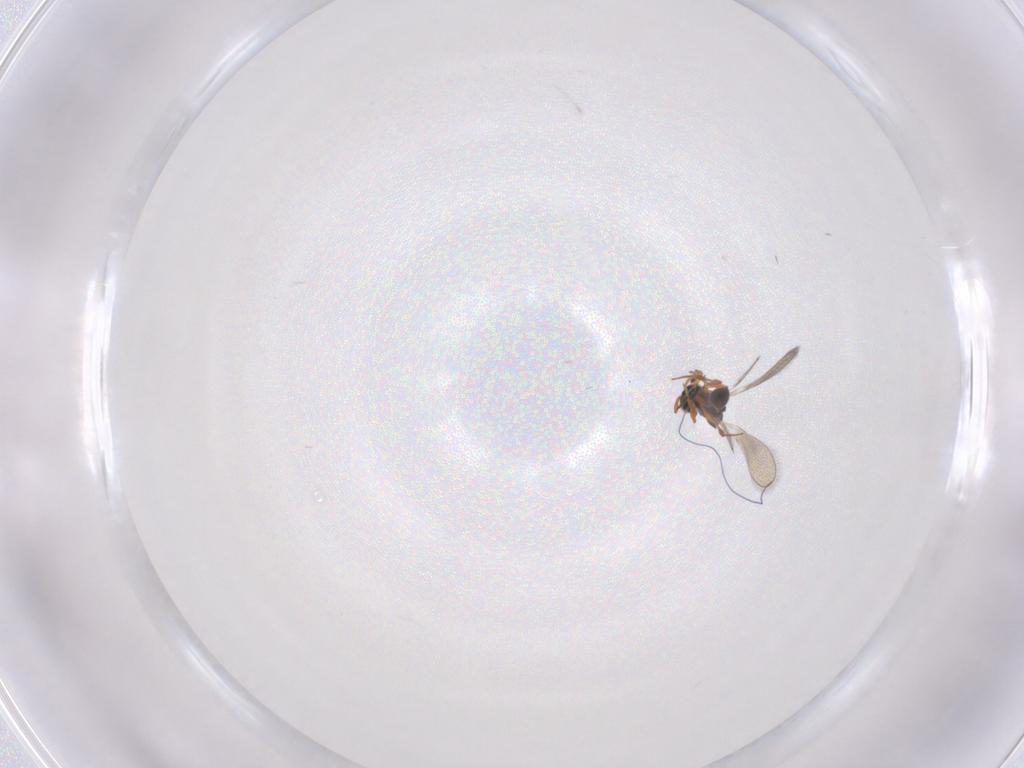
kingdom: Animalia
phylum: Arthropoda
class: Insecta
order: Hymenoptera
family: Platygastridae
